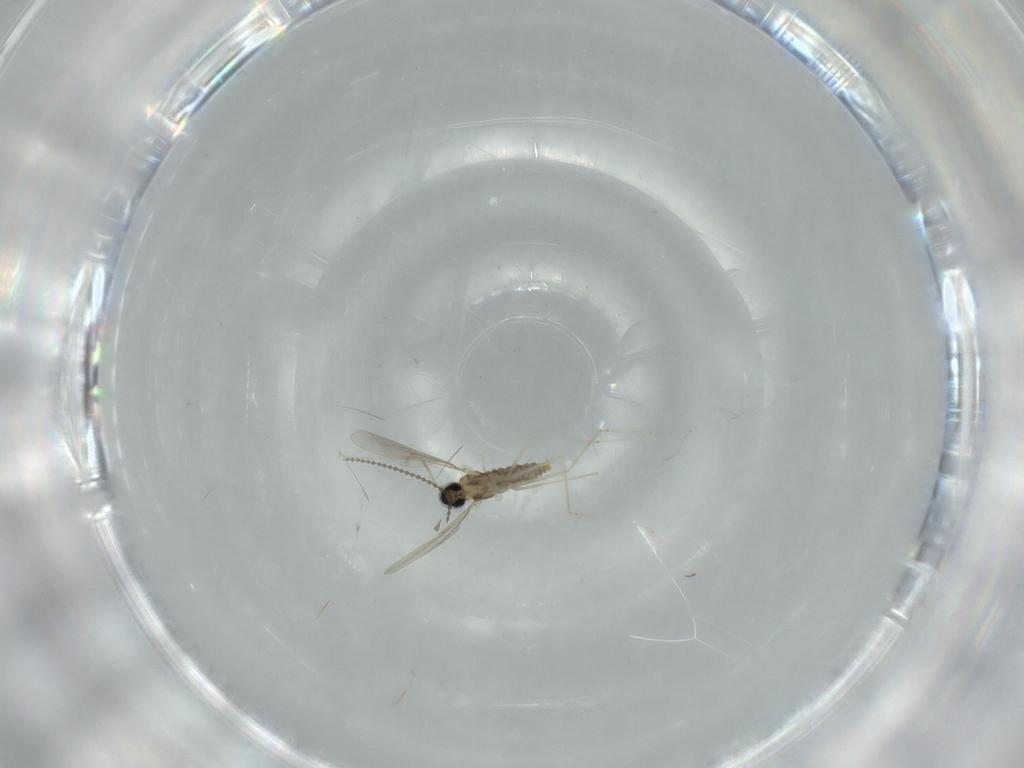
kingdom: Animalia
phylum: Arthropoda
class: Insecta
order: Diptera
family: Cecidomyiidae
